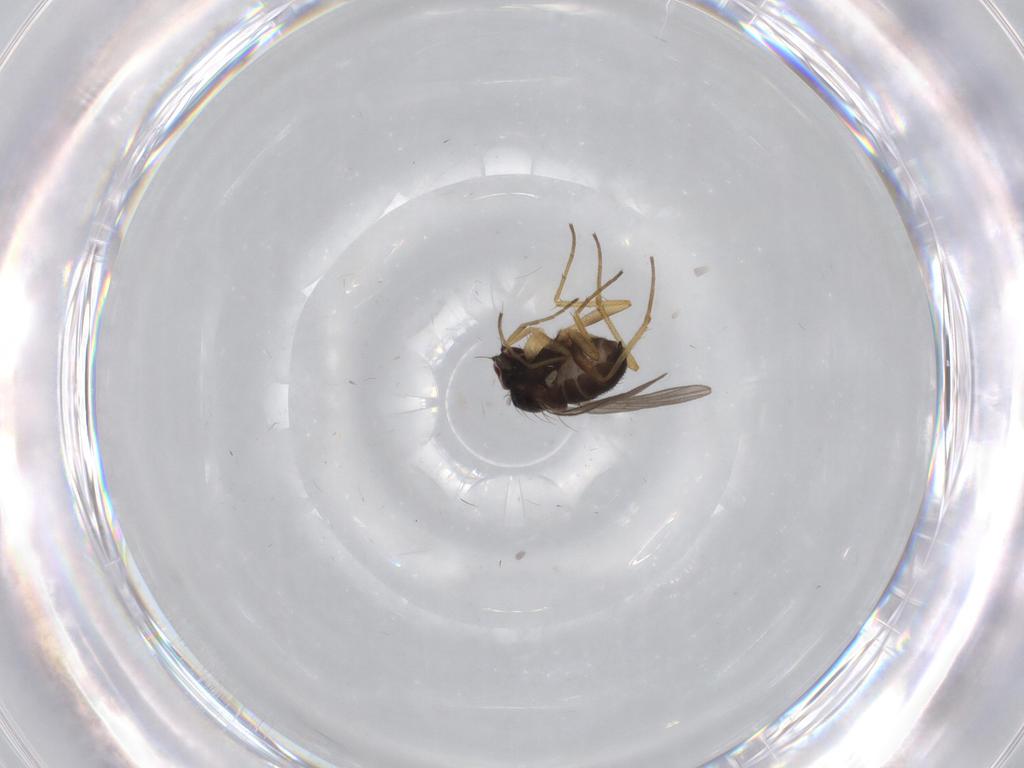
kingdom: Animalia
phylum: Arthropoda
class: Insecta
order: Diptera
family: Dolichopodidae
